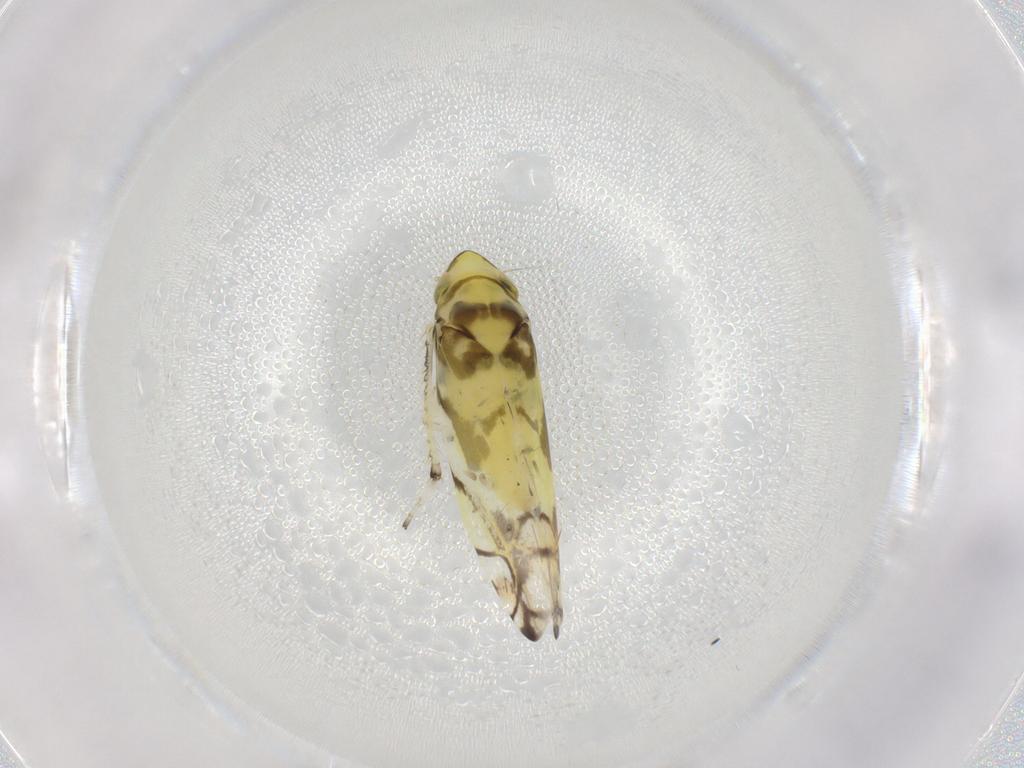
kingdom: Animalia
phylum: Arthropoda
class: Insecta
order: Hemiptera
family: Cicadellidae
